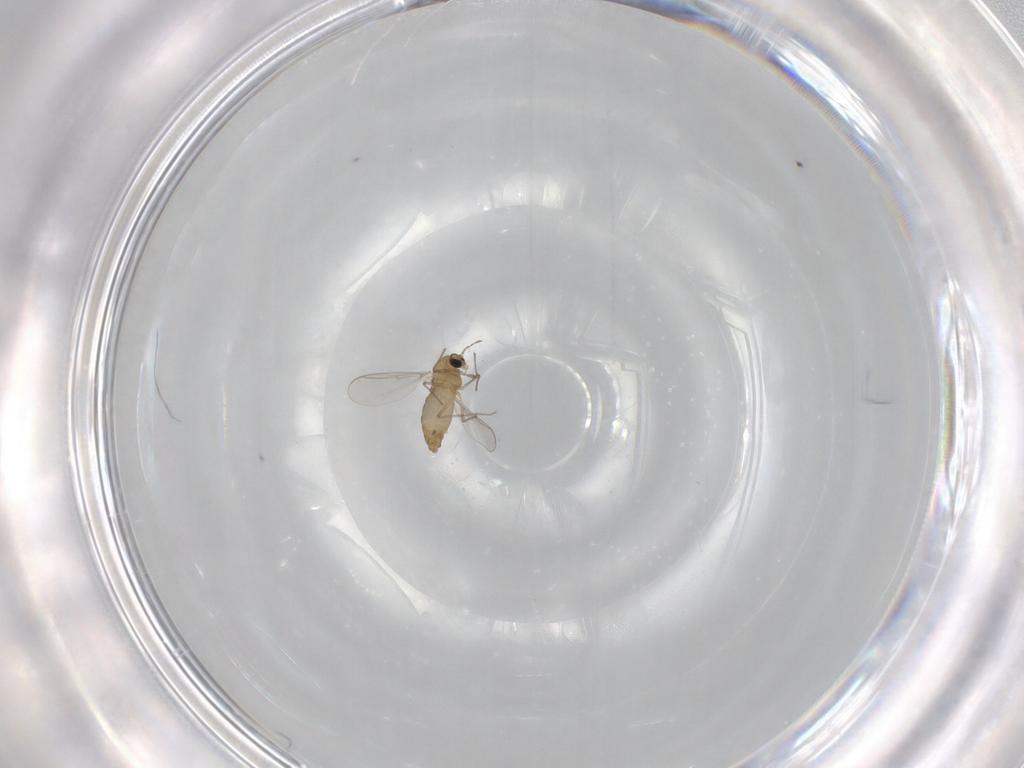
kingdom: Animalia
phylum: Arthropoda
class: Insecta
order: Diptera
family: Chironomidae
